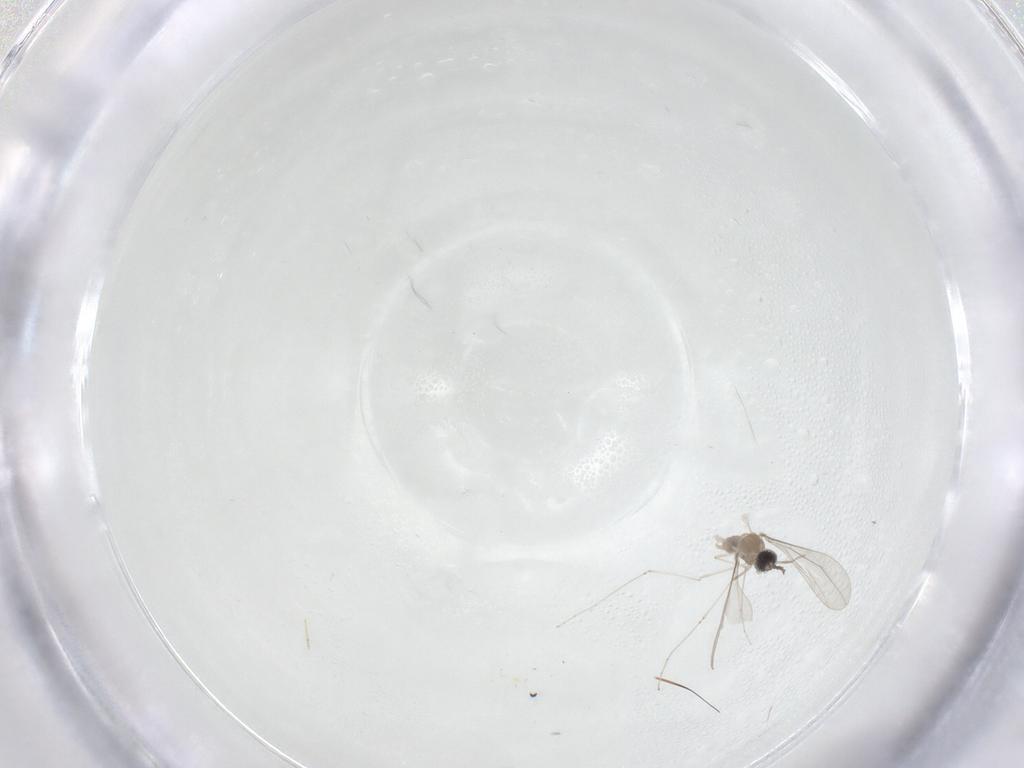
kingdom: Animalia
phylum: Arthropoda
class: Insecta
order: Diptera
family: Cecidomyiidae
